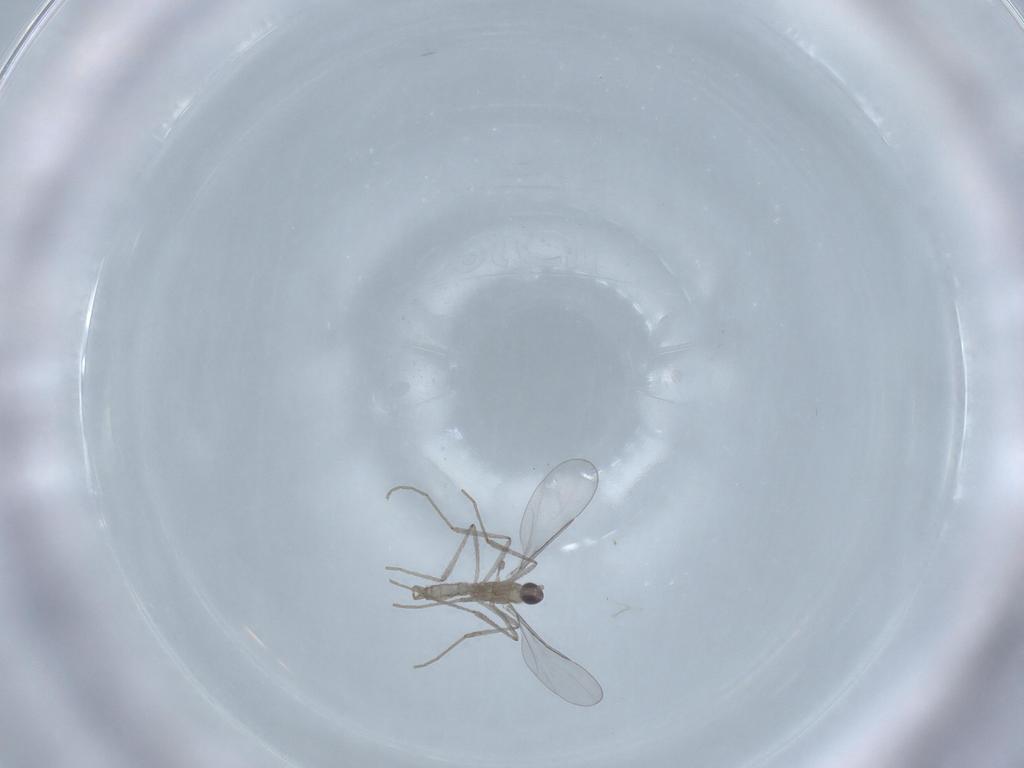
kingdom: Animalia
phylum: Arthropoda
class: Insecta
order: Diptera
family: Cecidomyiidae
